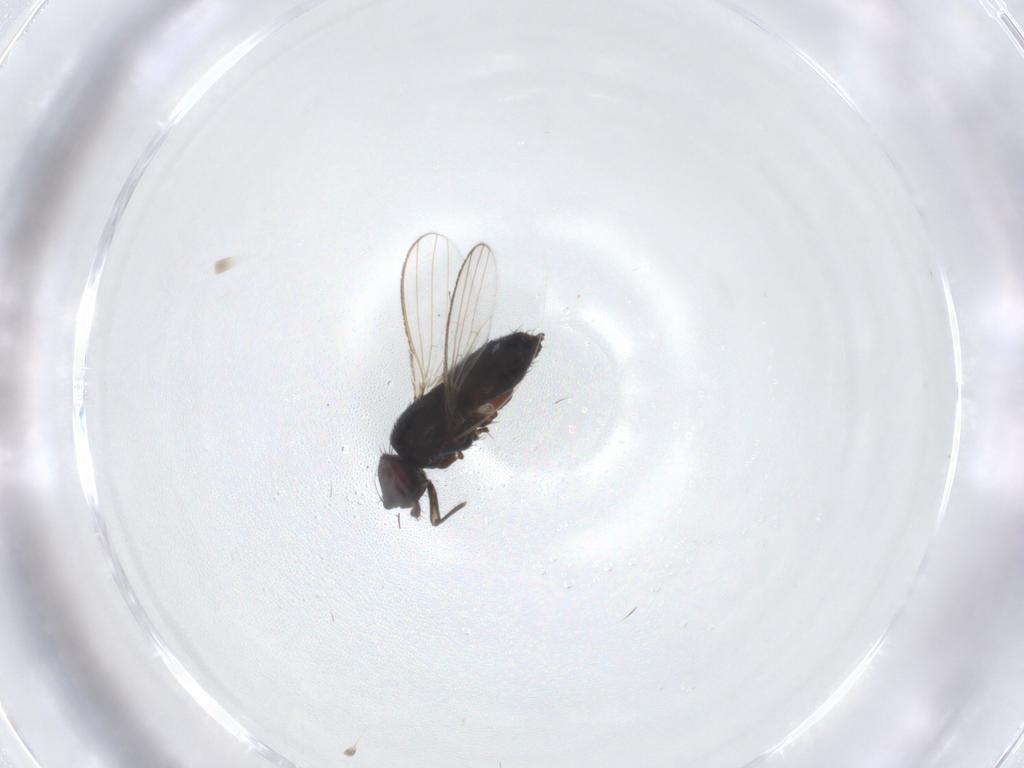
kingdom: Animalia
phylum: Arthropoda
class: Insecta
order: Diptera
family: Milichiidae
